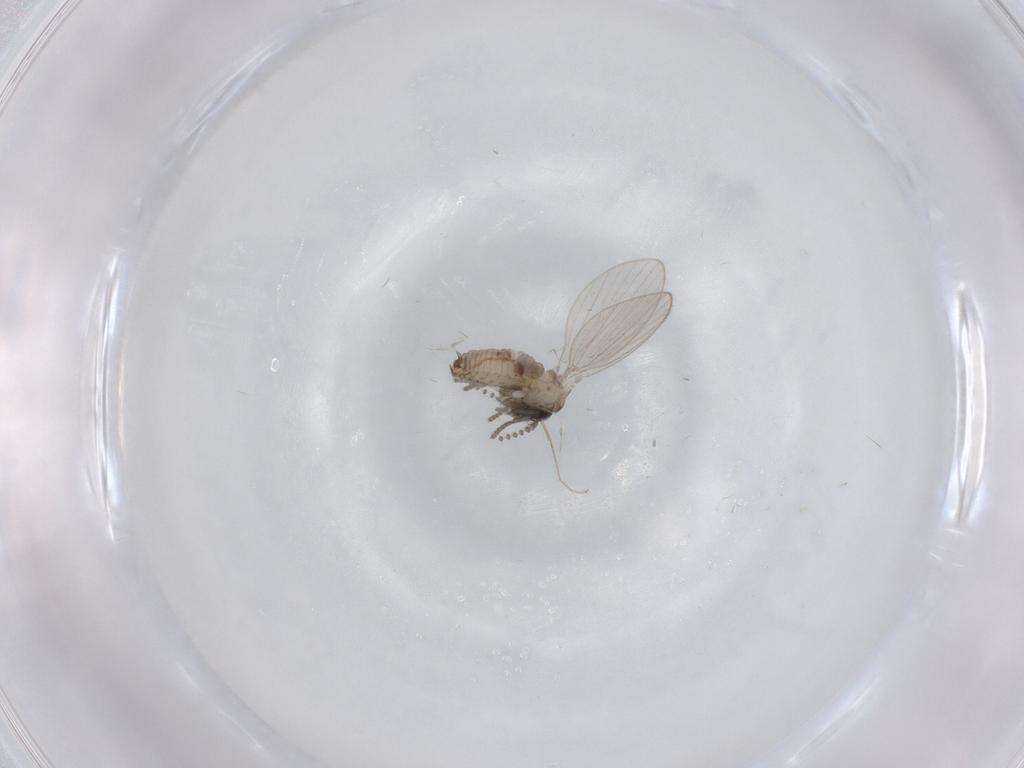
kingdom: Animalia
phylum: Arthropoda
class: Insecta
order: Diptera
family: Psychodidae
